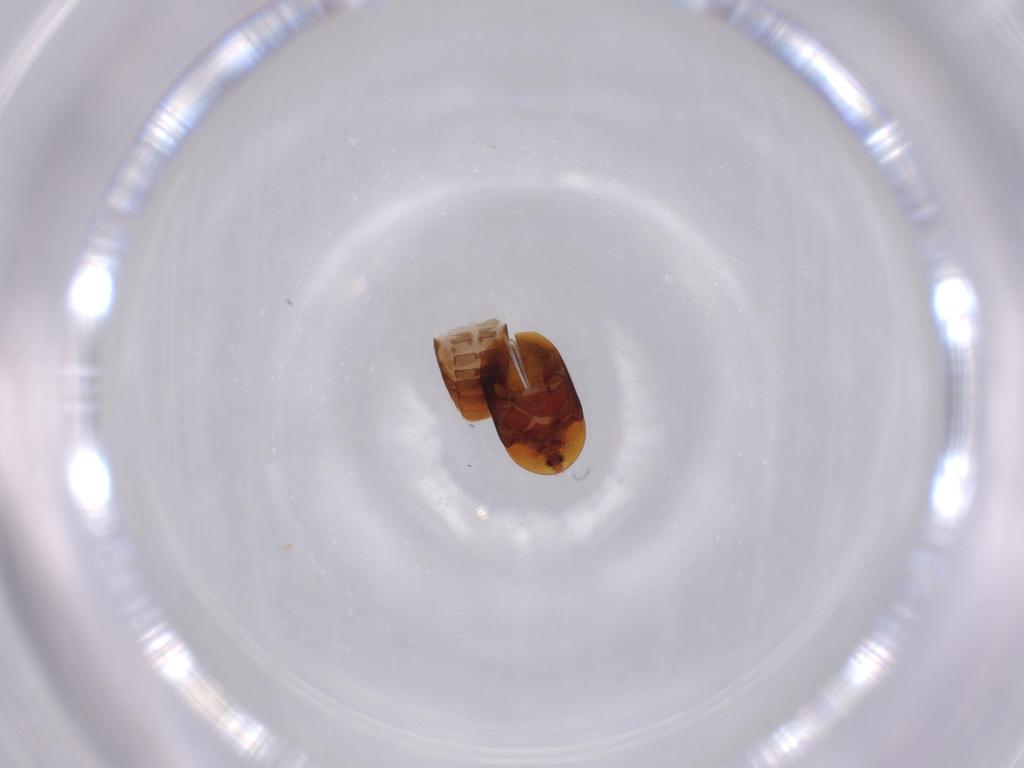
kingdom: Animalia
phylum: Arthropoda
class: Insecta
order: Coleoptera
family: Corylophidae
